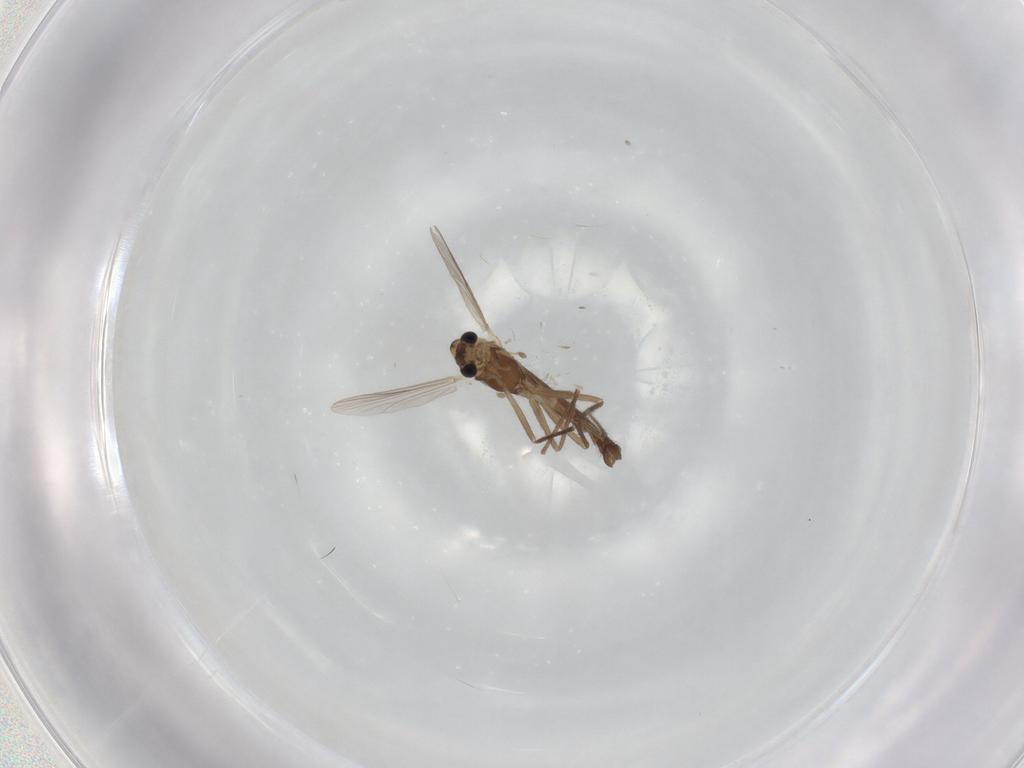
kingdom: Animalia
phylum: Arthropoda
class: Insecta
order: Diptera
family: Chironomidae
